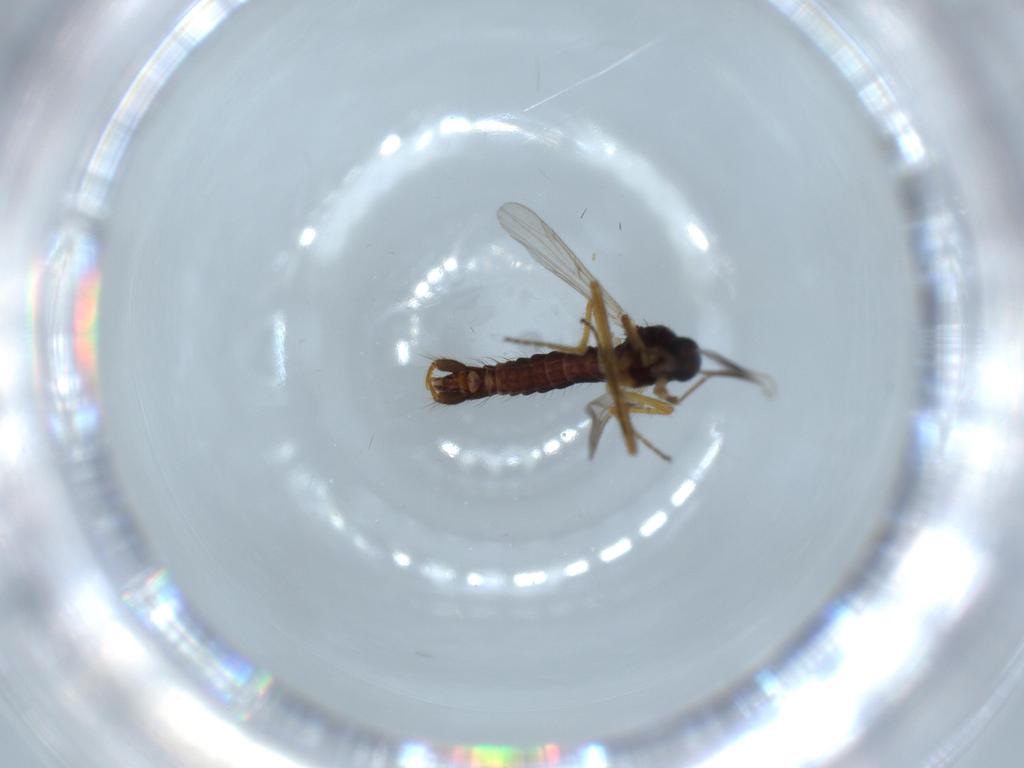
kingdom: Animalia
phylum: Arthropoda
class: Insecta
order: Diptera
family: Ceratopogonidae
